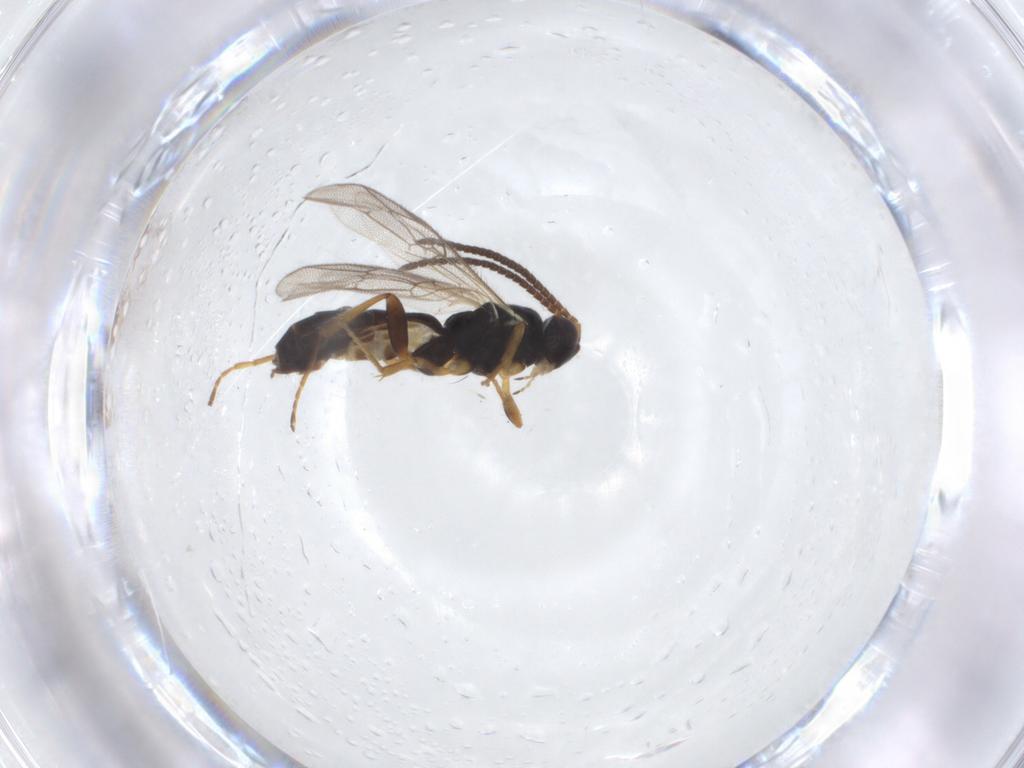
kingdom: Animalia
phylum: Arthropoda
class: Insecta
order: Hymenoptera
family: Ichneumonidae
